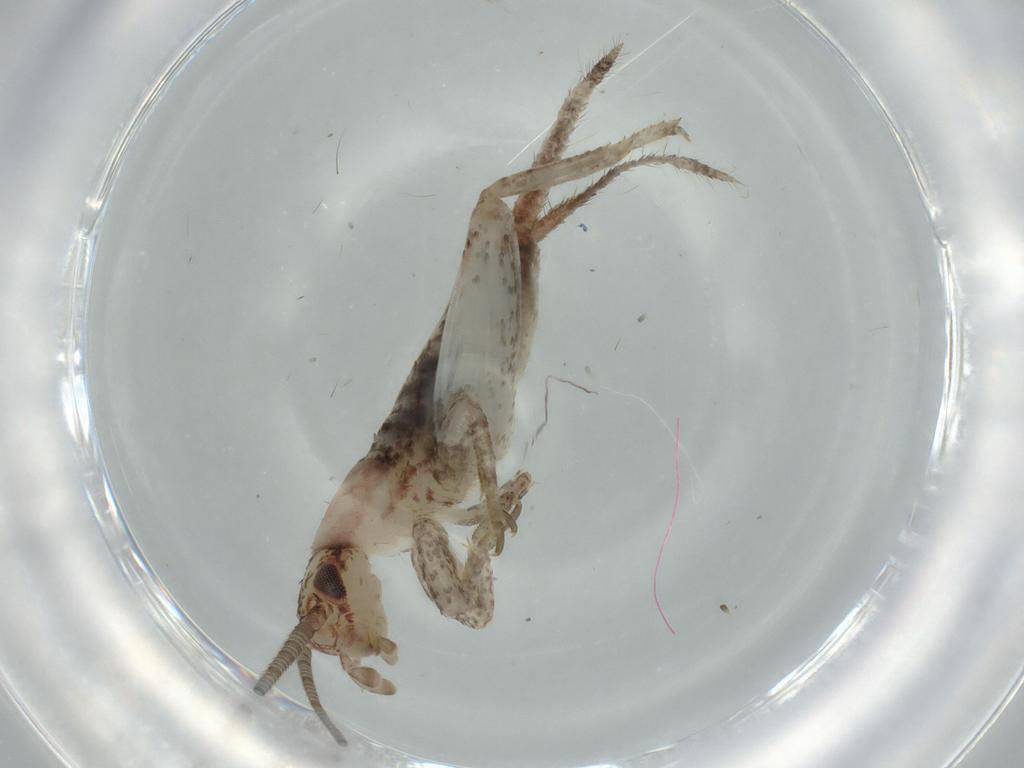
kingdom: Animalia
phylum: Arthropoda
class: Insecta
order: Orthoptera
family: Mogoplistidae
